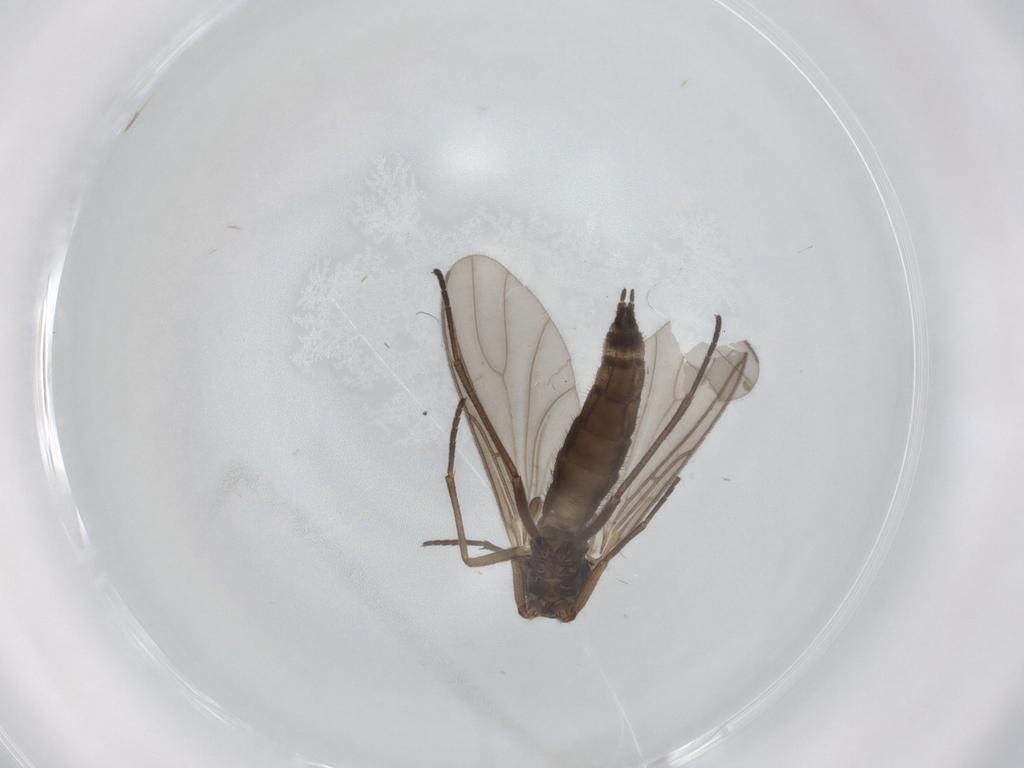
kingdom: Animalia
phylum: Arthropoda
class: Insecta
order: Diptera
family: Sciaridae
